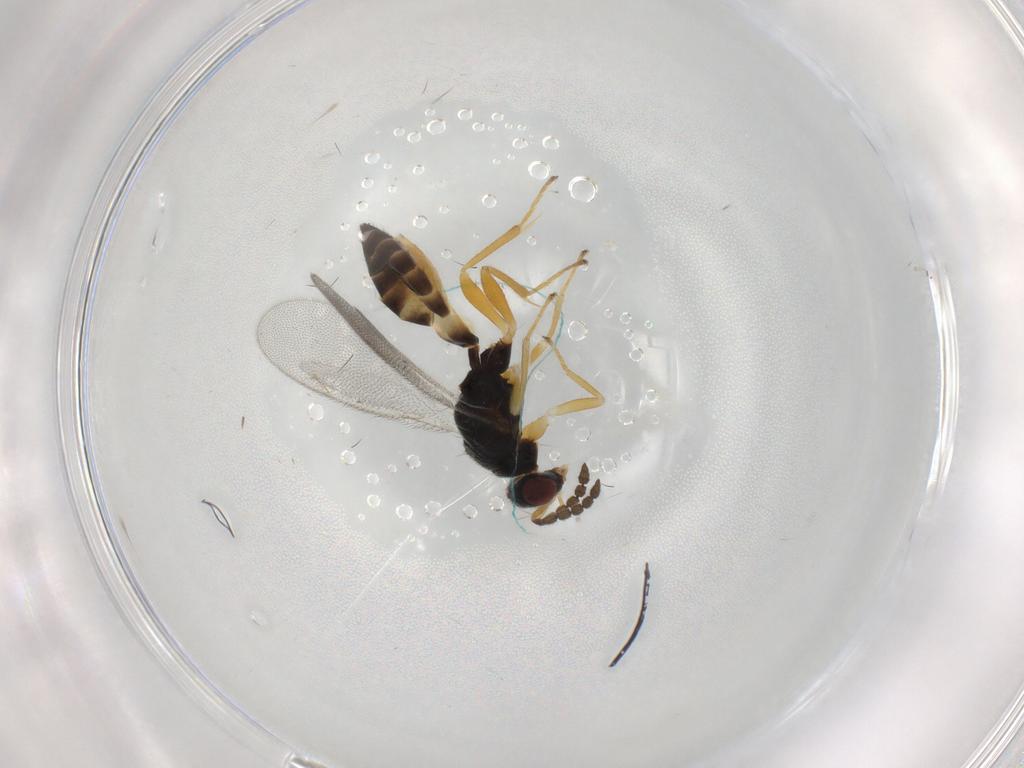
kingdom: Animalia
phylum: Arthropoda
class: Insecta
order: Hymenoptera
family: Eulophidae
